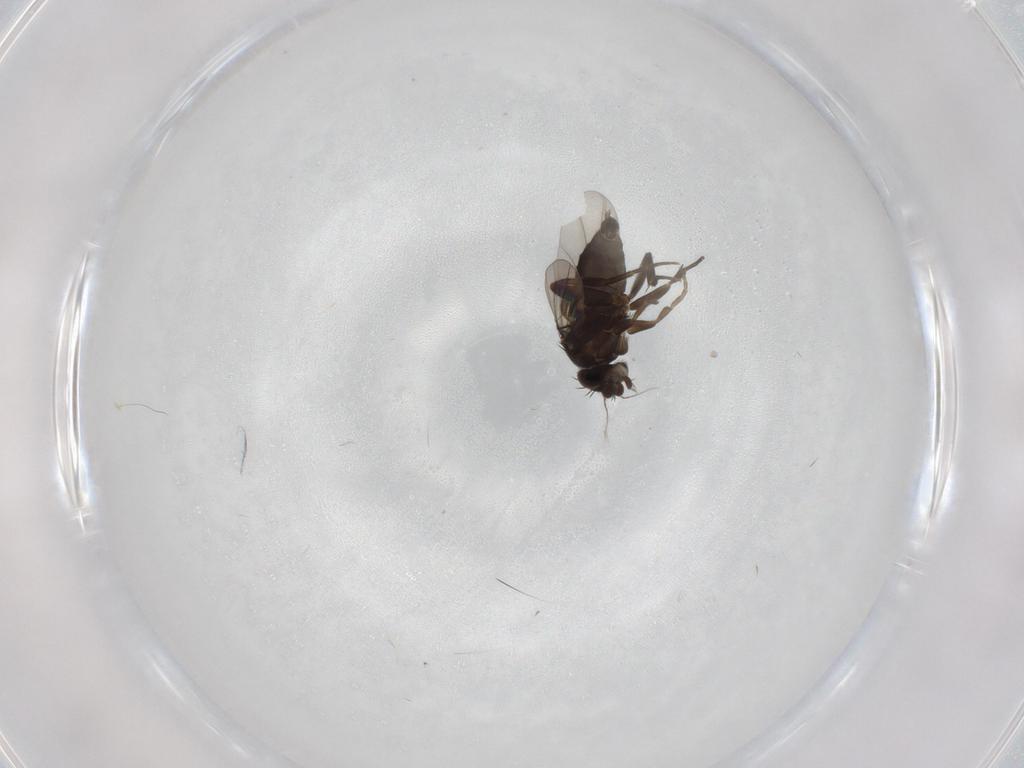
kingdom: Animalia
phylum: Arthropoda
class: Insecta
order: Diptera
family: Phoridae
